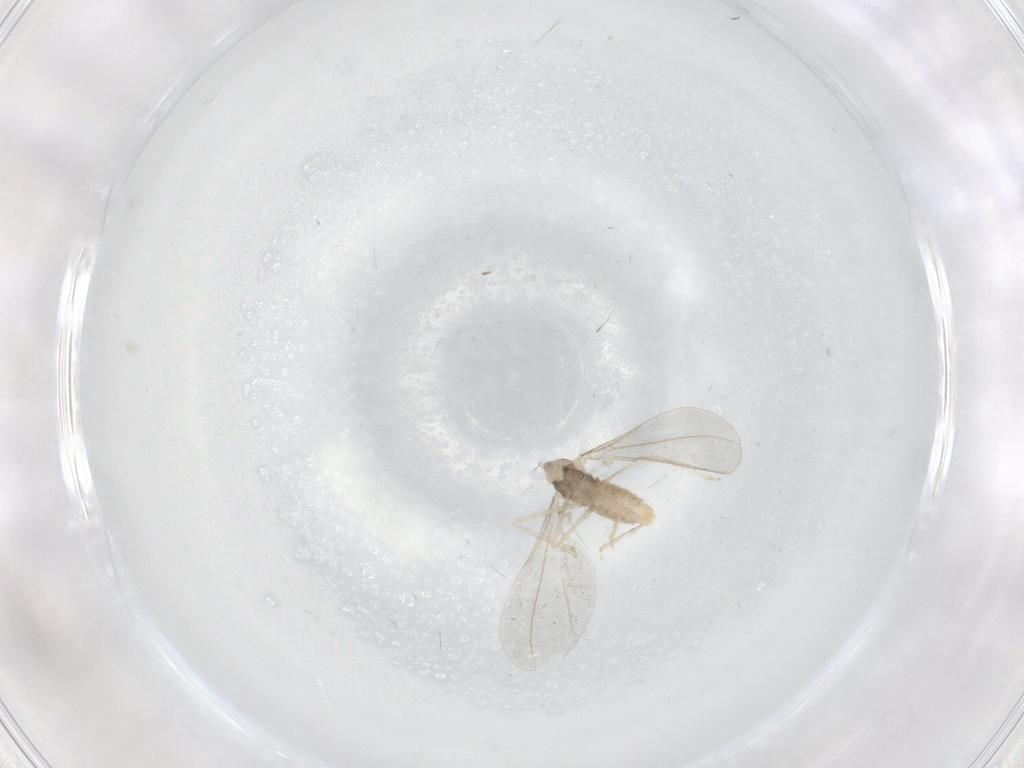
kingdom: Animalia
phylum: Arthropoda
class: Insecta
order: Diptera
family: Cecidomyiidae
